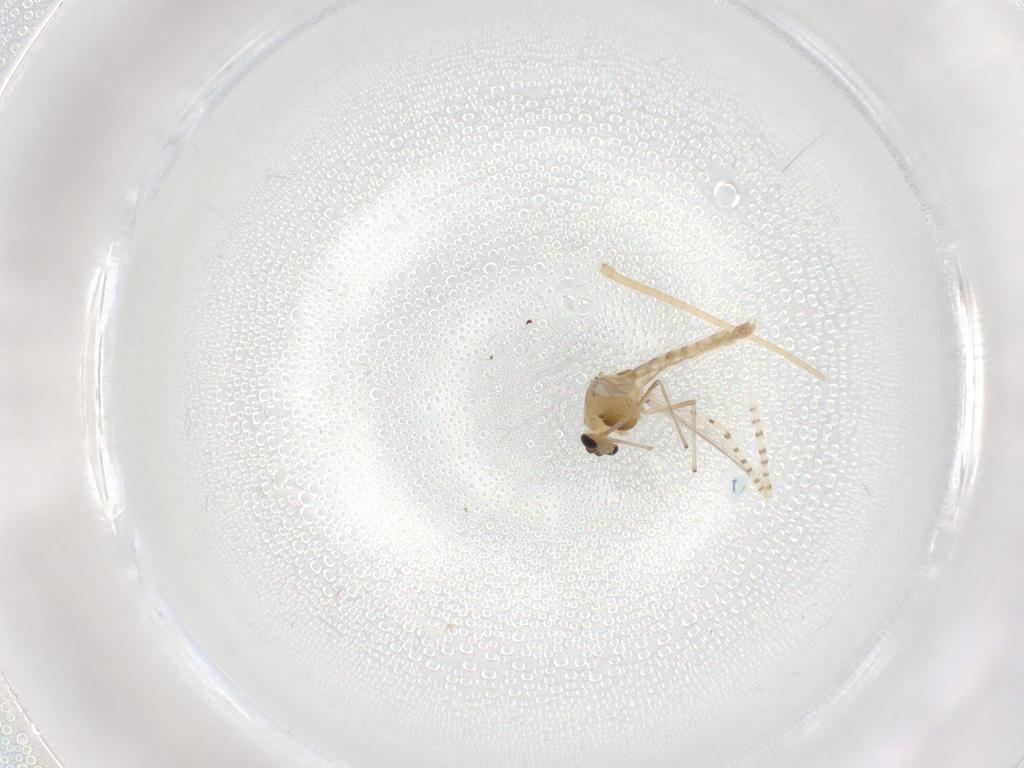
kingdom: Animalia
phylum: Arthropoda
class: Insecta
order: Diptera
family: Chaoboridae
